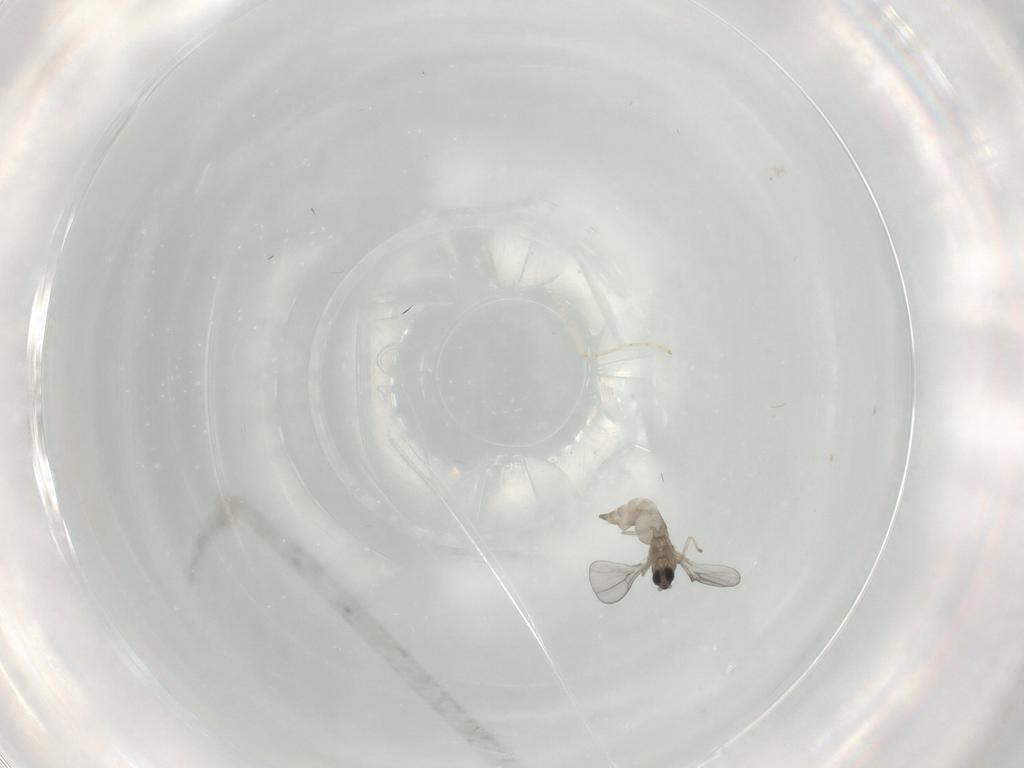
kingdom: Animalia
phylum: Arthropoda
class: Insecta
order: Diptera
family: Cecidomyiidae
